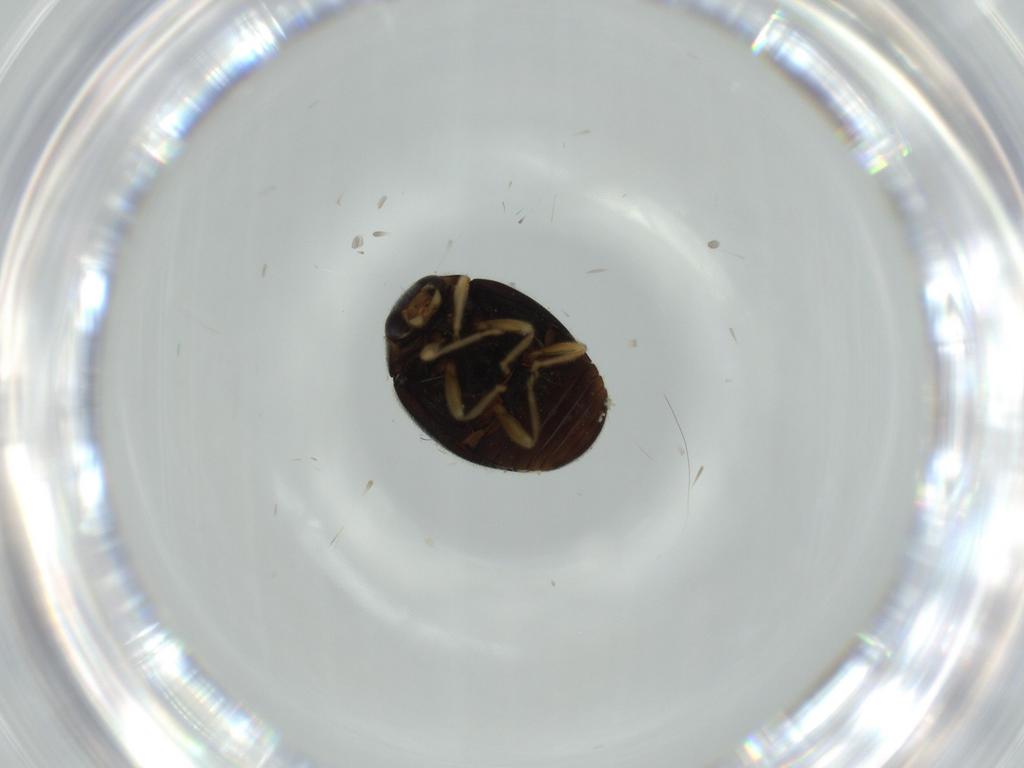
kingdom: Animalia
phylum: Arthropoda
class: Insecta
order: Coleoptera
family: Coccinellidae
